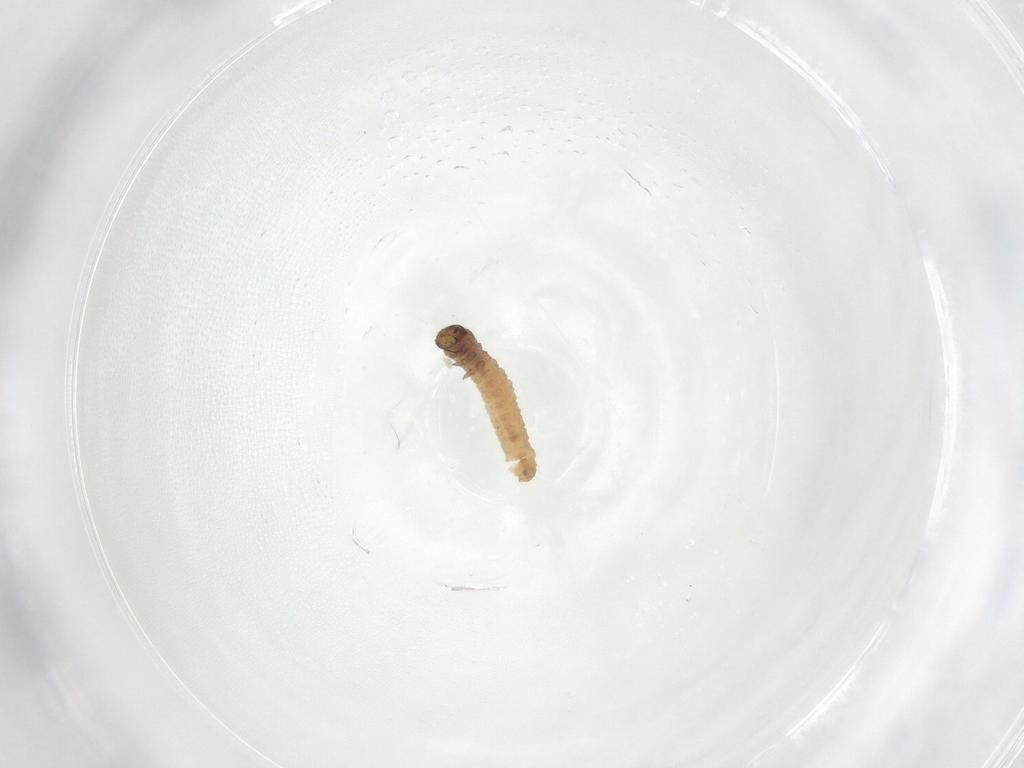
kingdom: Animalia
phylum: Arthropoda
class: Insecta
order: Lepidoptera
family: Pyralidae
